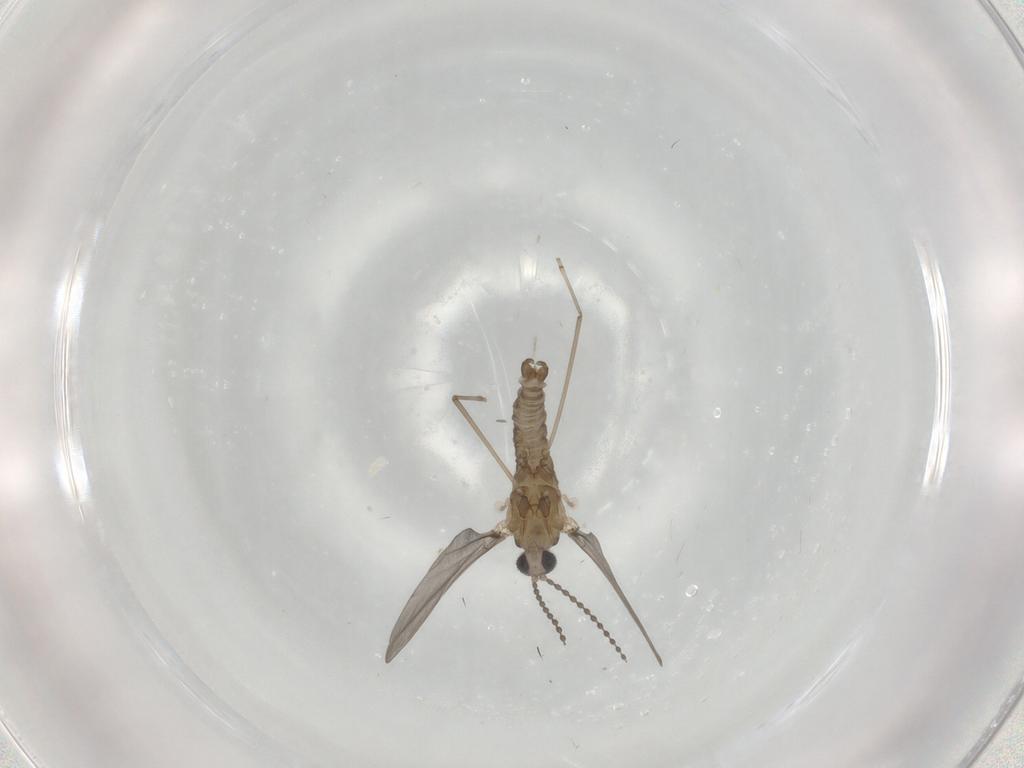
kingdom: Animalia
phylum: Arthropoda
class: Insecta
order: Diptera
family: Cecidomyiidae
